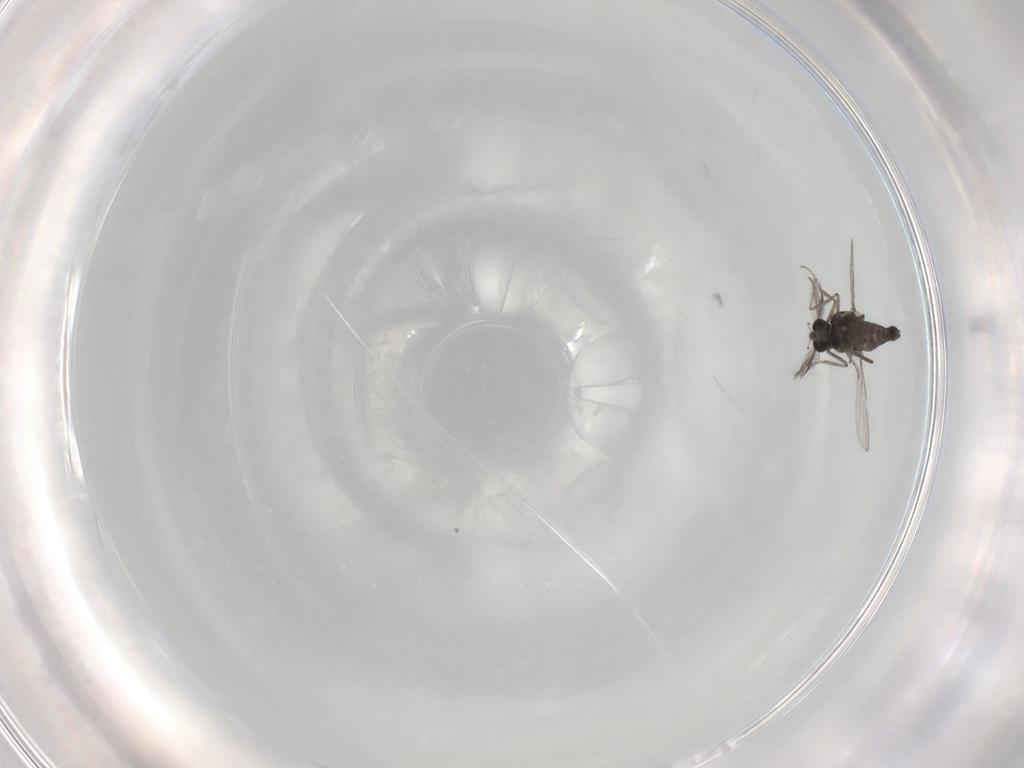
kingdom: Animalia
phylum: Arthropoda
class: Insecta
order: Diptera
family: Ceratopogonidae
